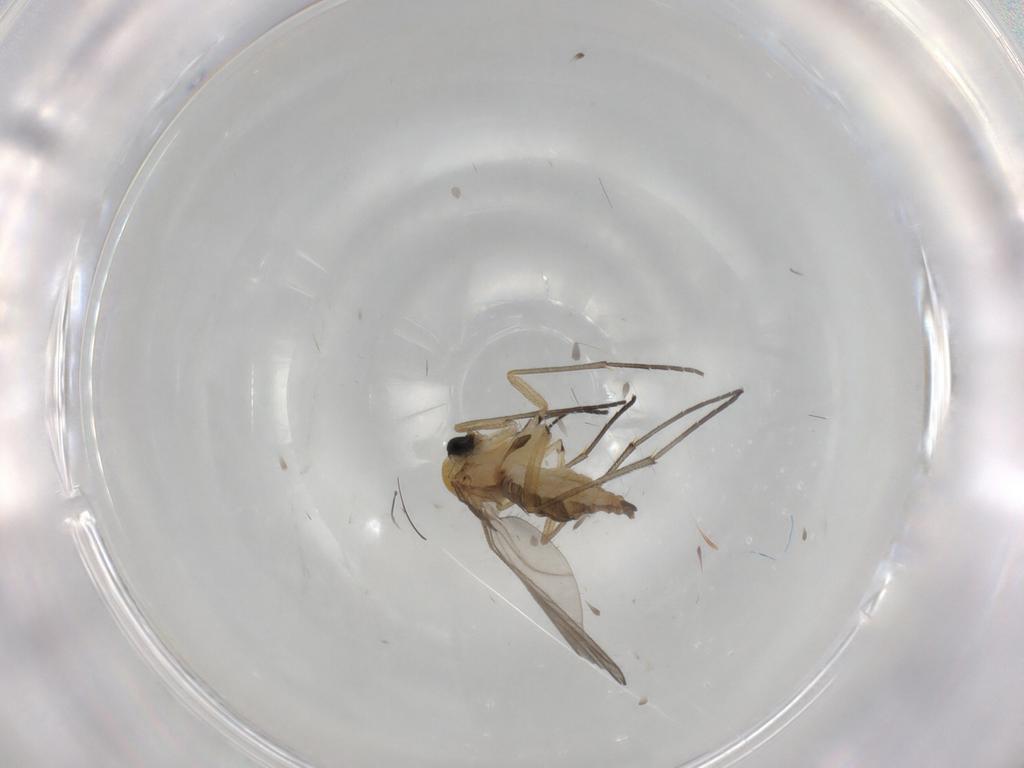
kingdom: Animalia
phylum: Arthropoda
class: Insecta
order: Diptera
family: Sciaridae
